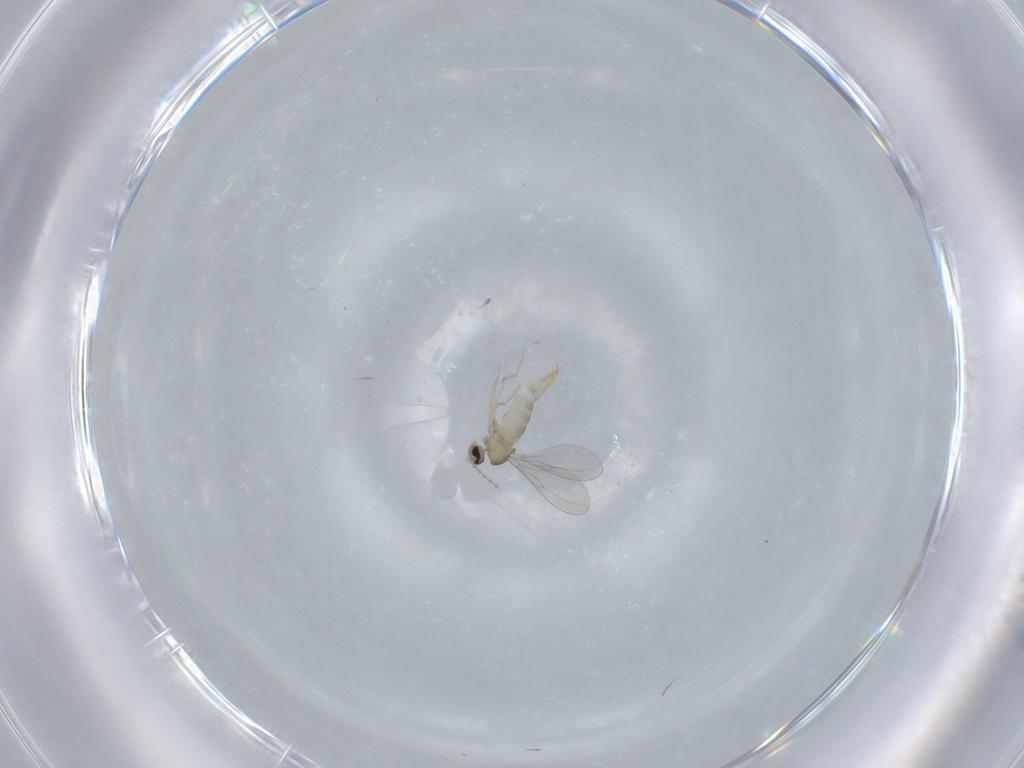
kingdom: Animalia
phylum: Arthropoda
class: Insecta
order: Diptera
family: Cecidomyiidae
